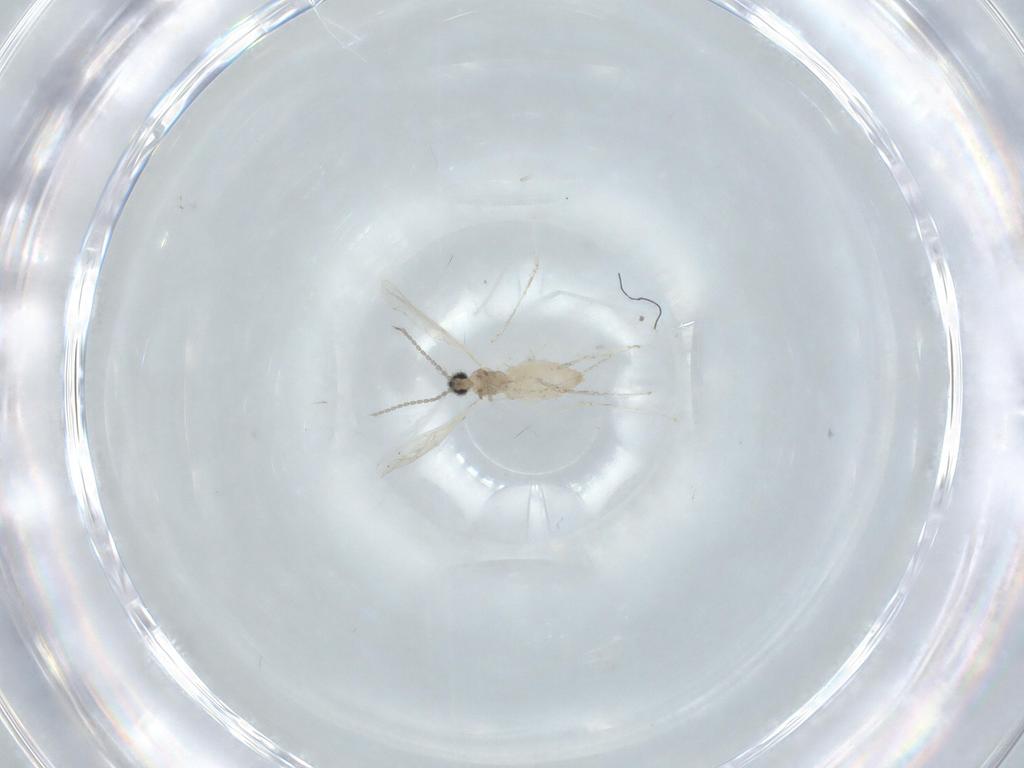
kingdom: Animalia
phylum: Arthropoda
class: Insecta
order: Diptera
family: Chironomidae
